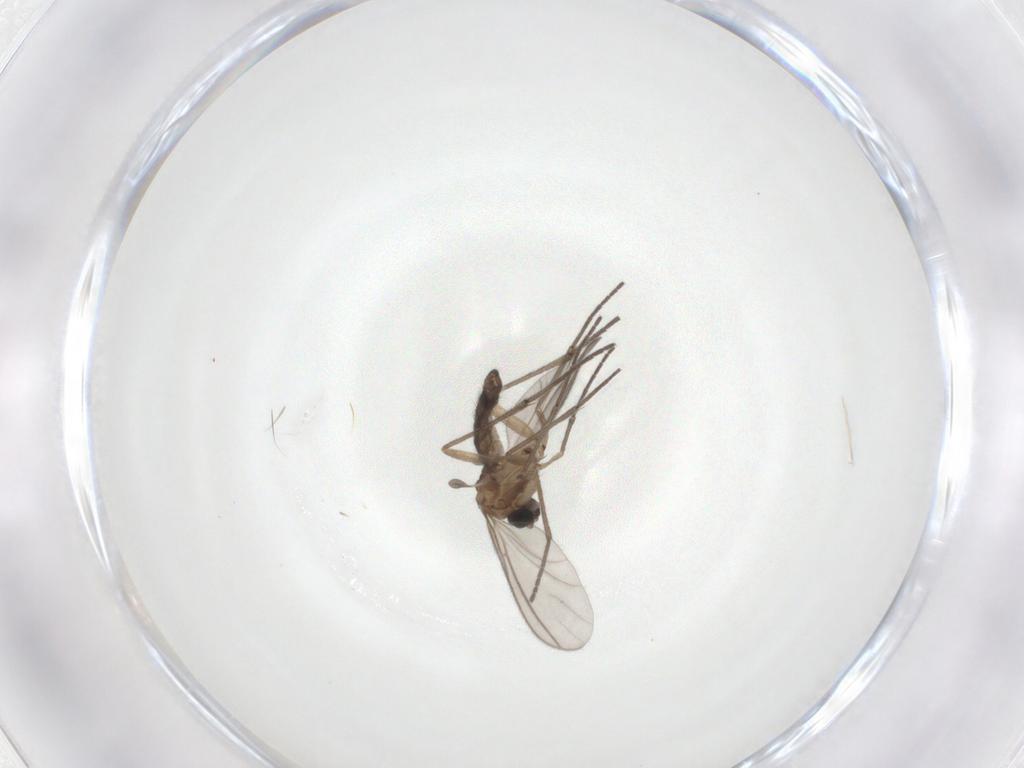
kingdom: Animalia
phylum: Arthropoda
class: Insecta
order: Diptera
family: Sciaridae
